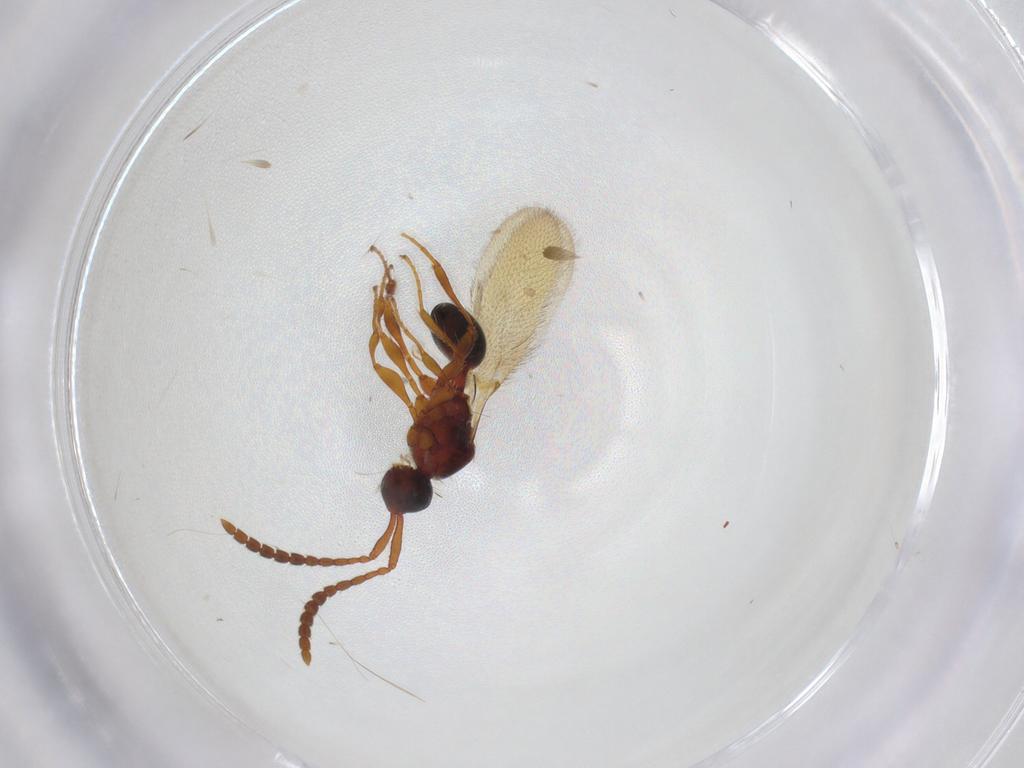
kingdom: Animalia
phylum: Arthropoda
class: Insecta
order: Hymenoptera
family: Diapriidae
